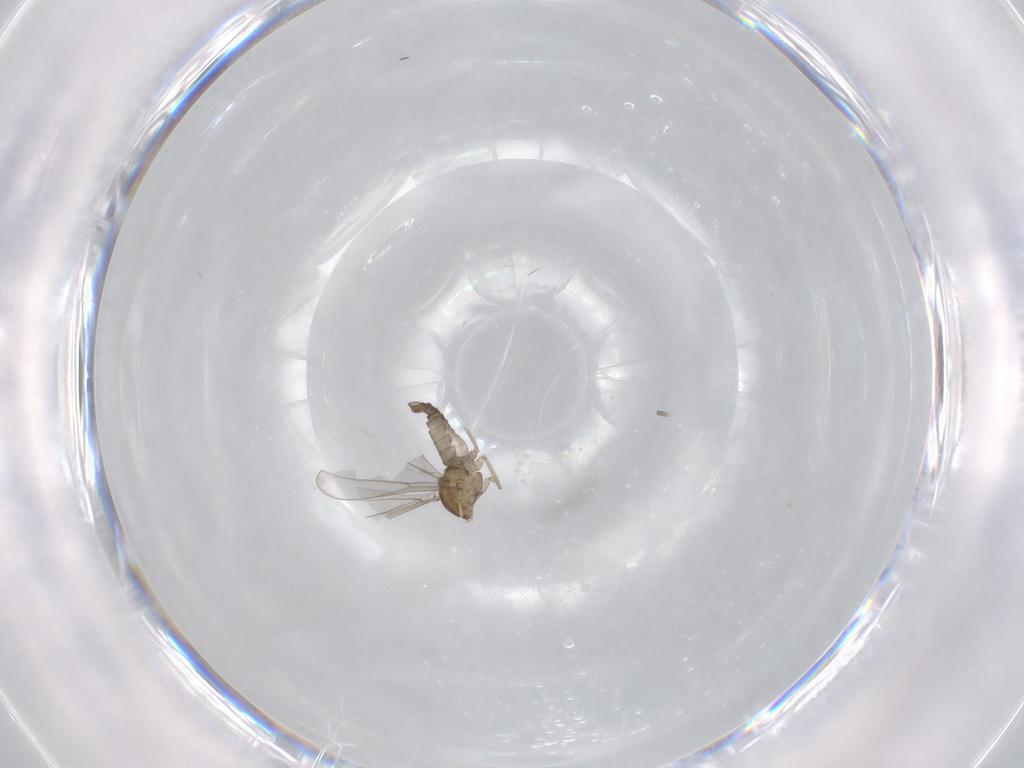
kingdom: Animalia
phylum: Arthropoda
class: Insecta
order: Diptera
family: Cecidomyiidae
